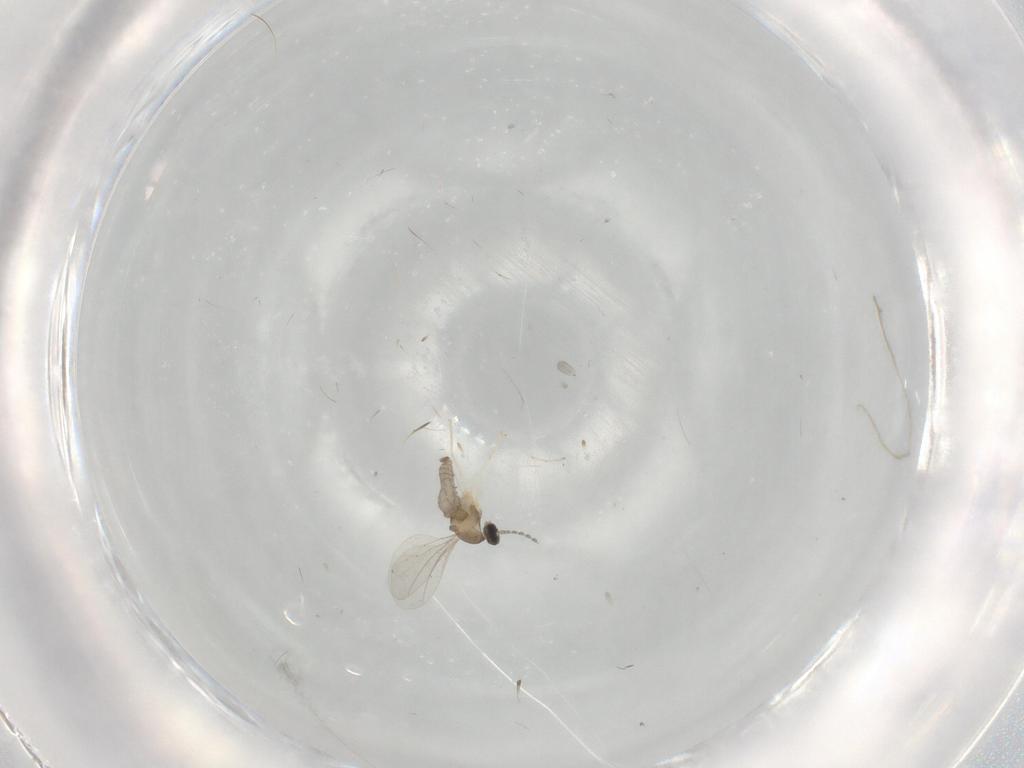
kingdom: Animalia
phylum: Arthropoda
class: Insecta
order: Diptera
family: Cecidomyiidae
